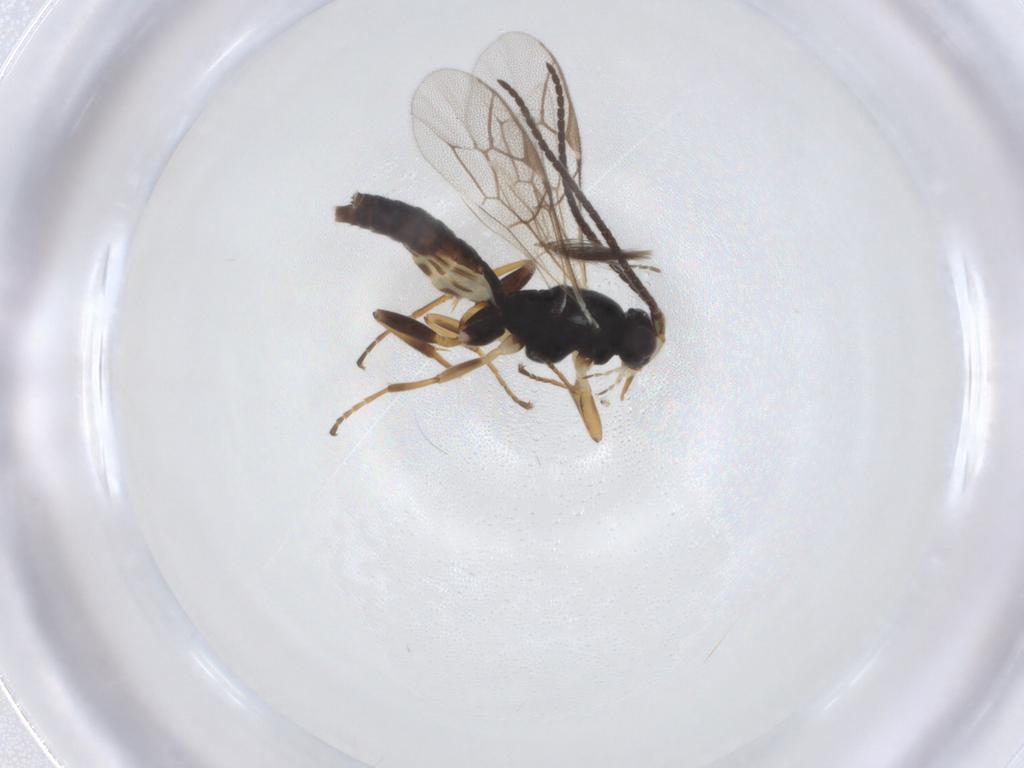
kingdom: Animalia
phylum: Arthropoda
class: Insecta
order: Hymenoptera
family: Ichneumonidae
